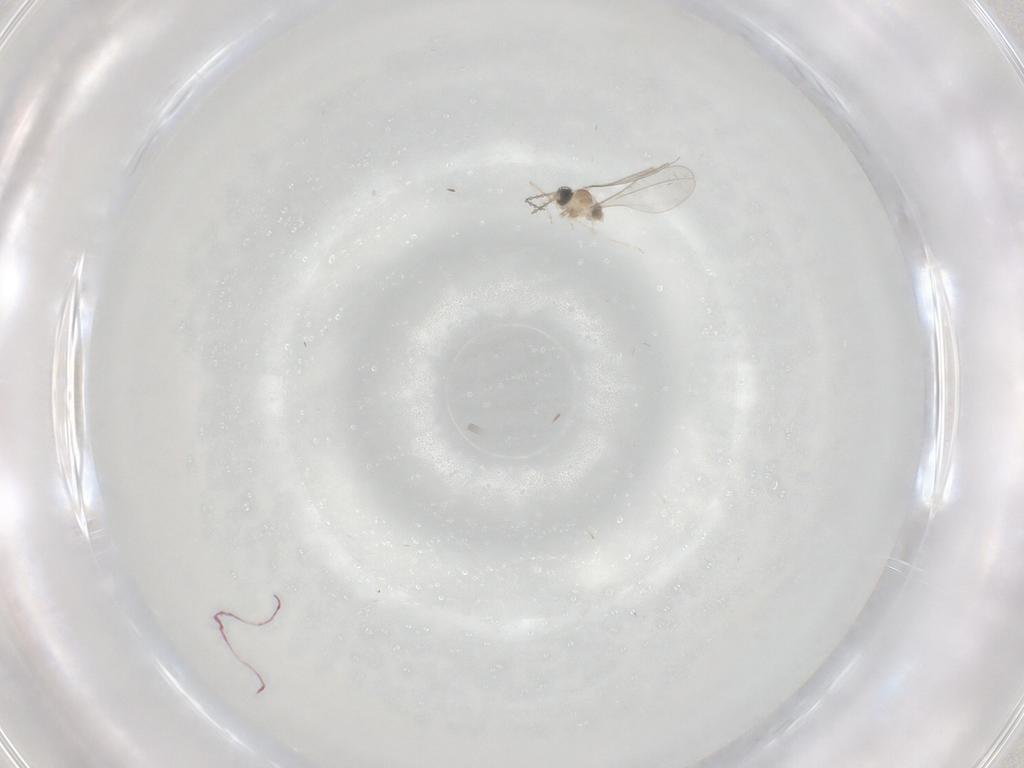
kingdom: Animalia
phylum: Arthropoda
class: Insecta
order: Diptera
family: Cecidomyiidae
